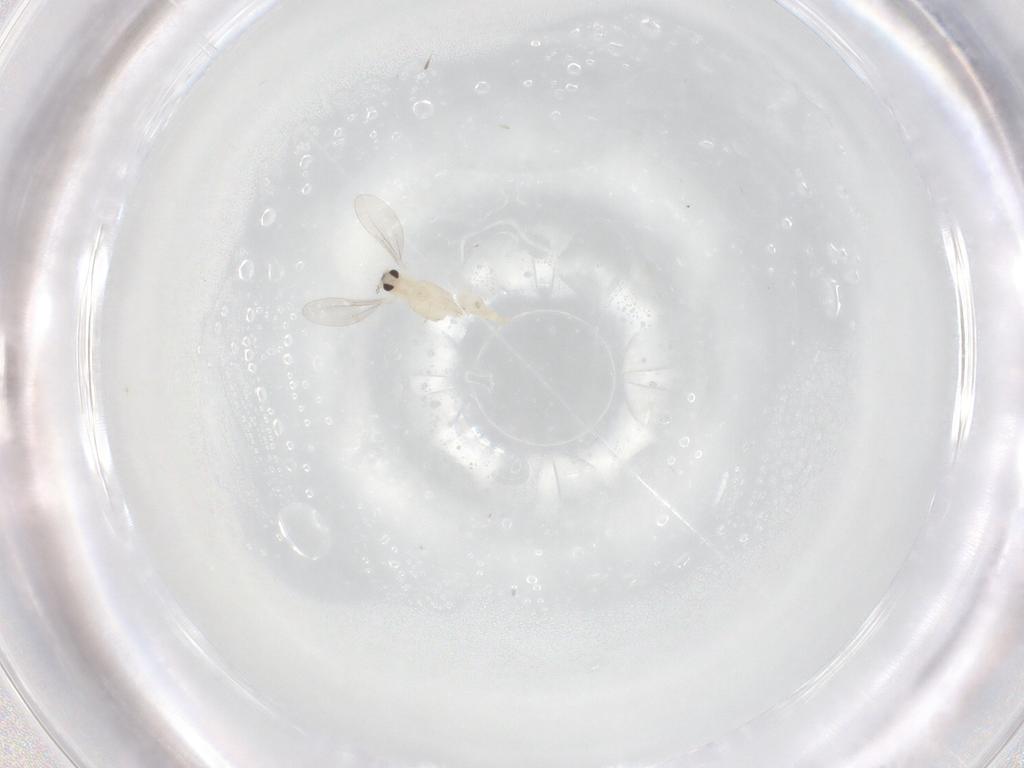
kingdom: Animalia
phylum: Arthropoda
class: Insecta
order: Diptera
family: Cecidomyiidae
